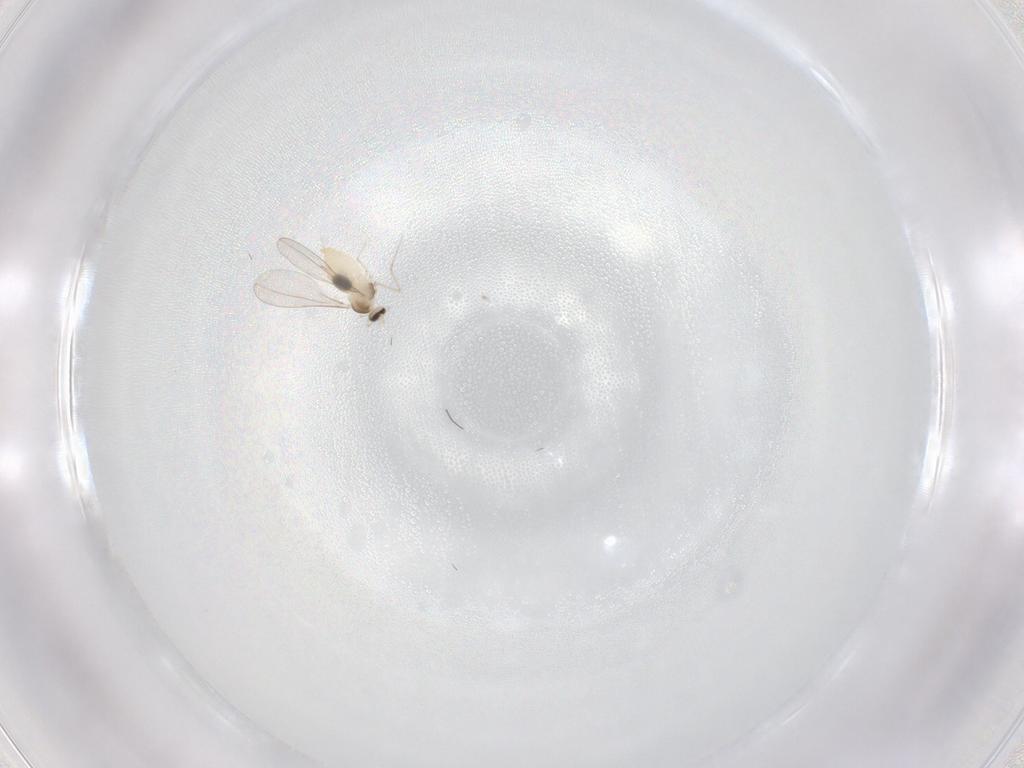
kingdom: Animalia
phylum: Arthropoda
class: Insecta
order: Diptera
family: Cecidomyiidae
